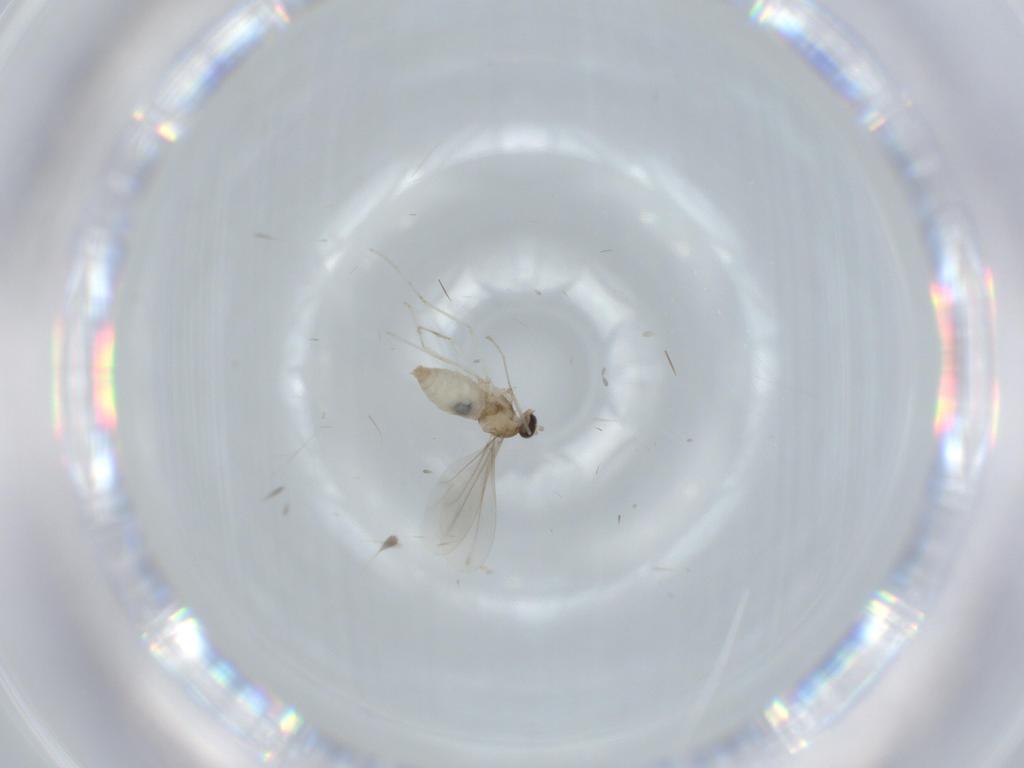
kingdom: Animalia
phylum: Arthropoda
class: Insecta
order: Diptera
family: Cecidomyiidae
